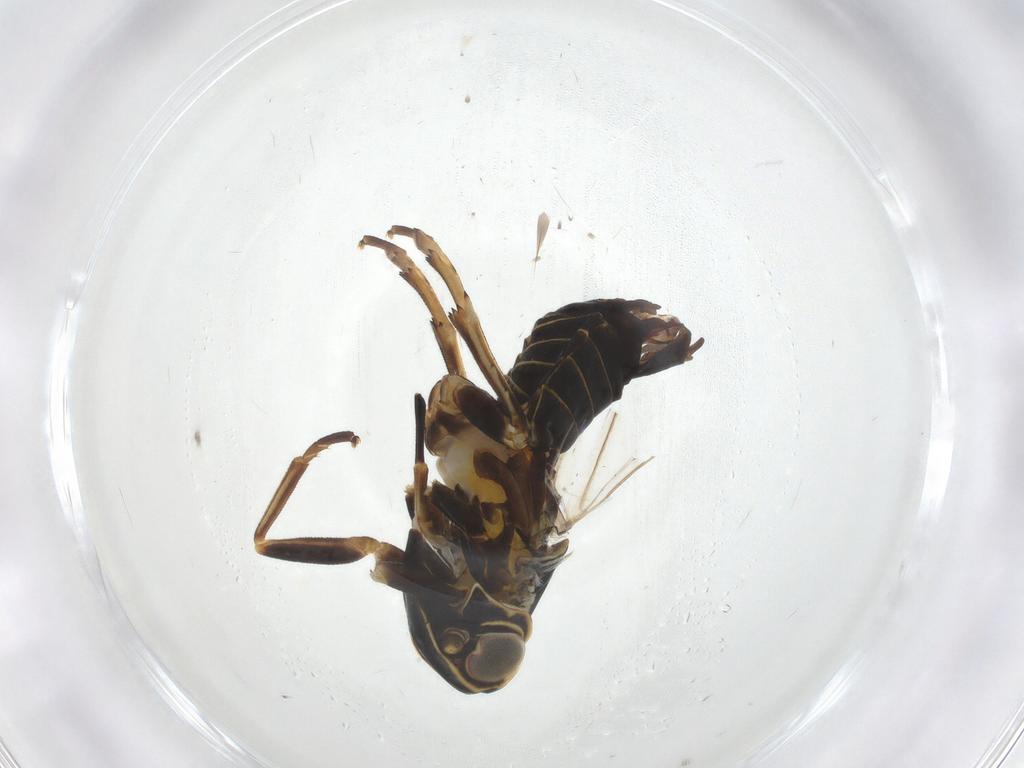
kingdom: Animalia
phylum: Arthropoda
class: Insecta
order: Hemiptera
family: Cixiidae
